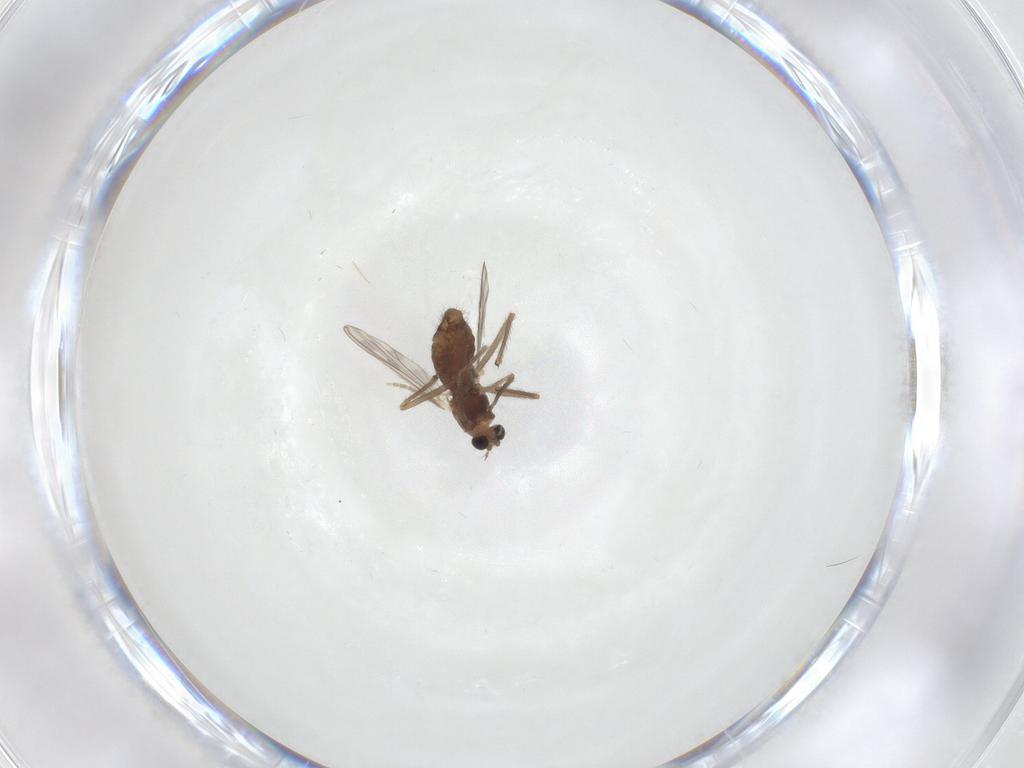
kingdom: Animalia
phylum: Arthropoda
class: Insecta
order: Diptera
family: Chironomidae
